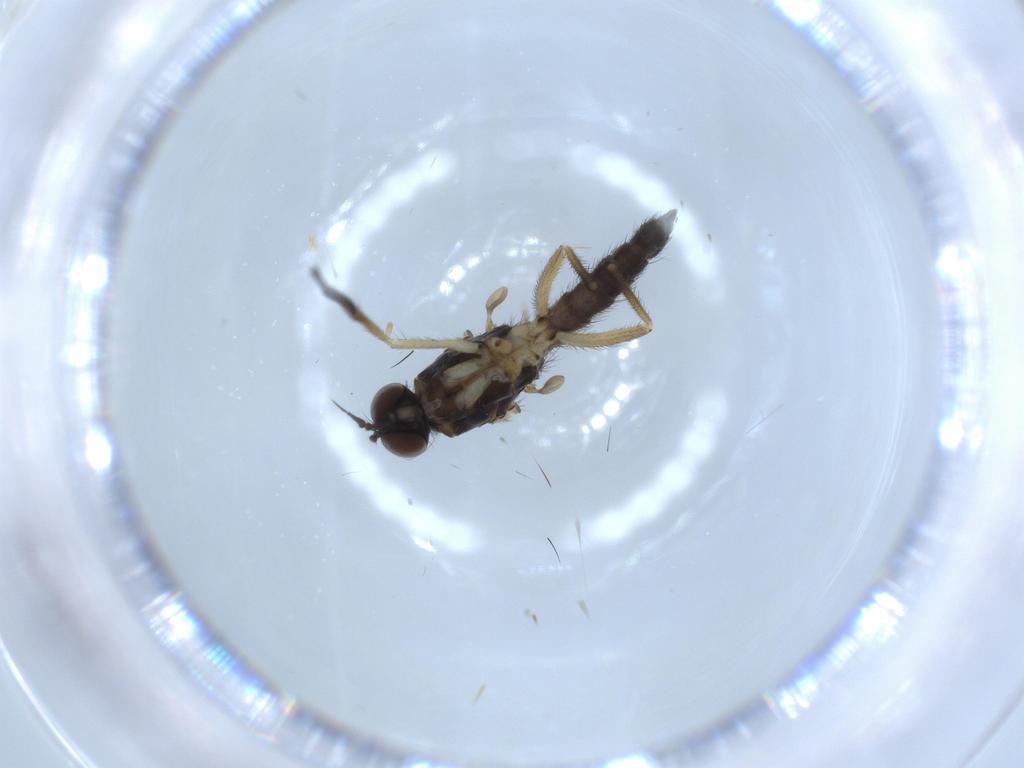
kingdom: Animalia
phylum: Arthropoda
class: Insecta
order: Diptera
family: Empididae
